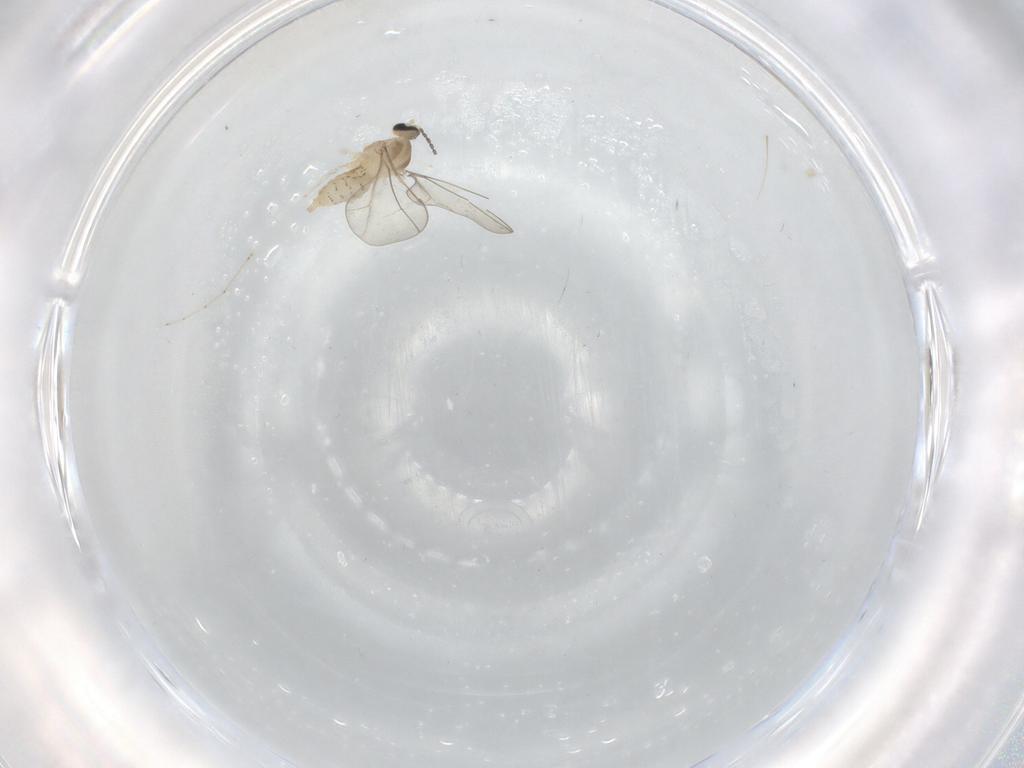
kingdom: Animalia
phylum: Arthropoda
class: Insecta
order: Diptera
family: Cecidomyiidae
